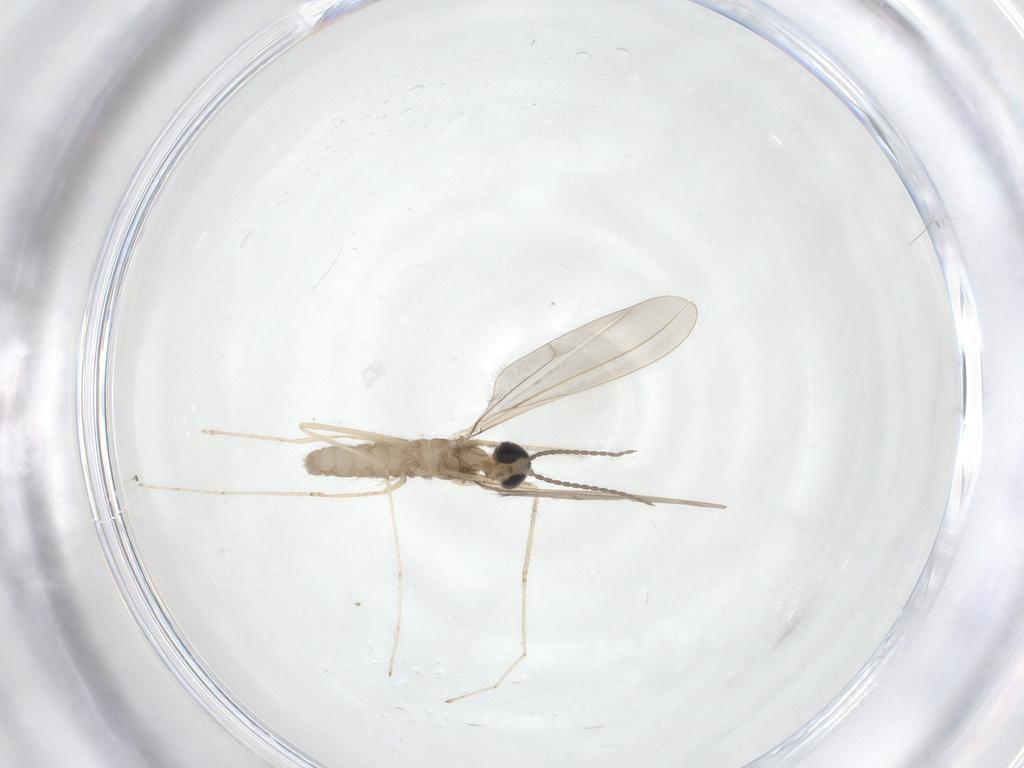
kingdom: Animalia
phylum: Arthropoda
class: Insecta
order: Diptera
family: Cecidomyiidae
